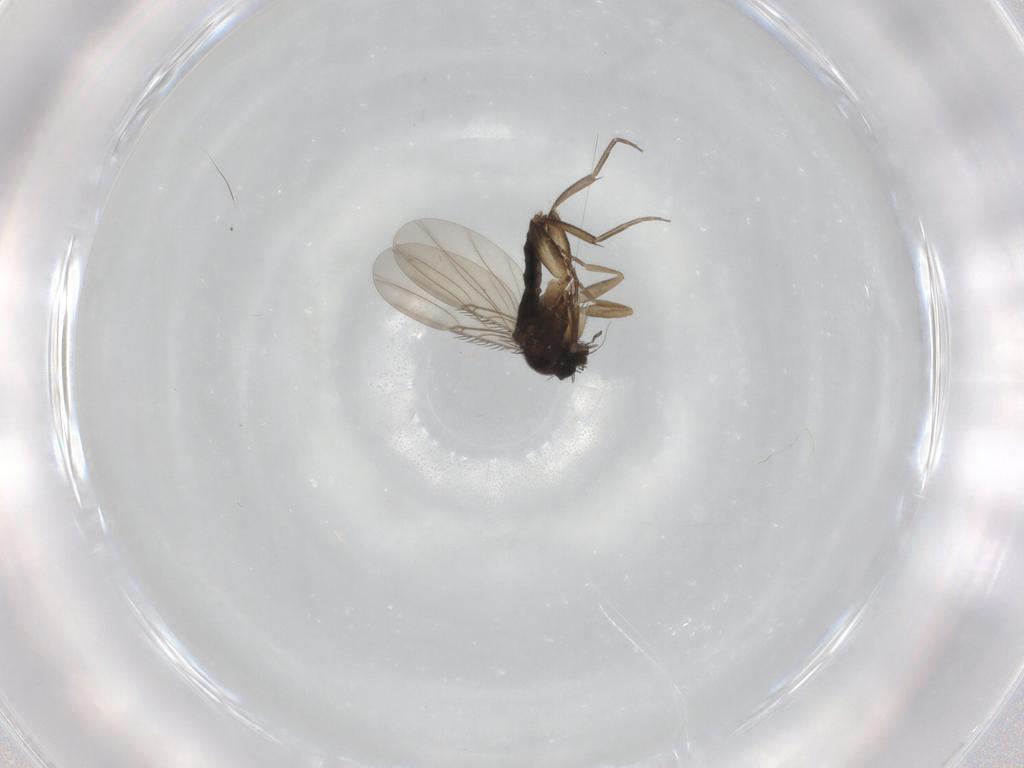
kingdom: Animalia
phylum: Arthropoda
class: Insecta
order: Diptera
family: Phoridae
